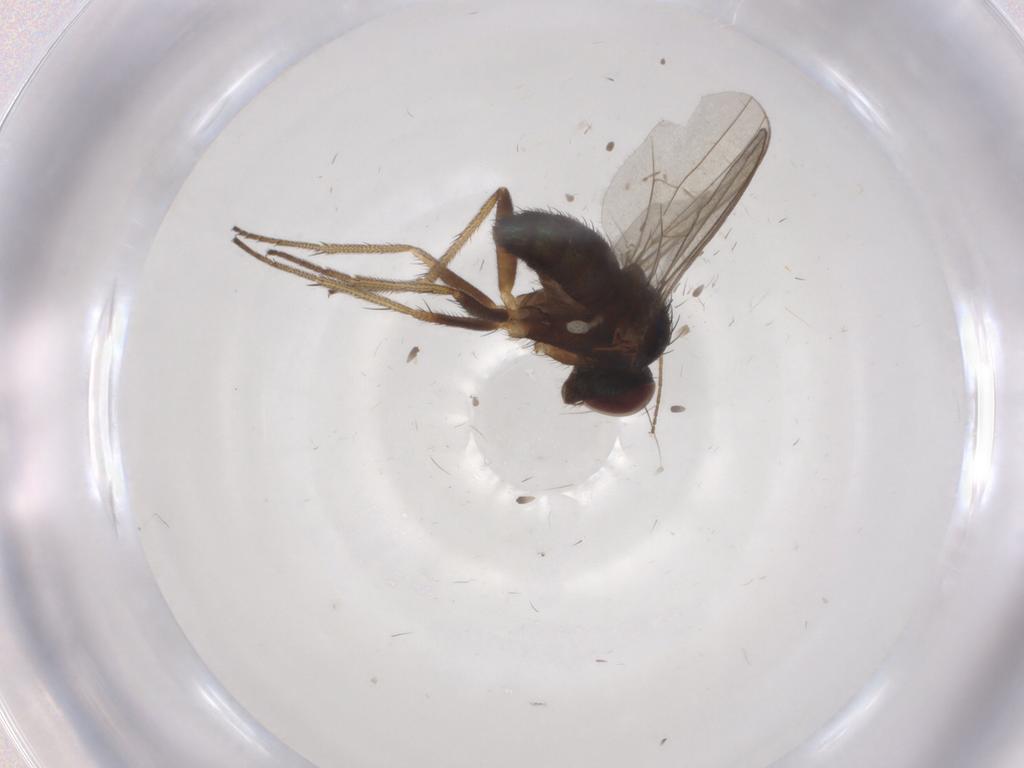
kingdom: Animalia
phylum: Arthropoda
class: Insecta
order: Diptera
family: Chironomidae
